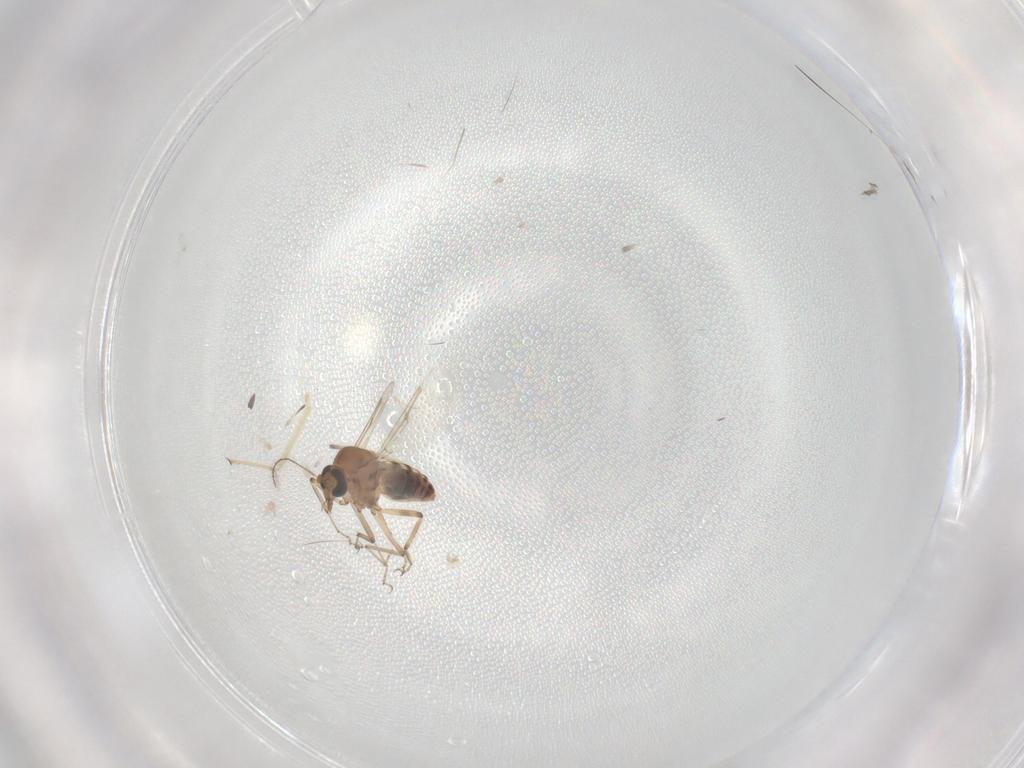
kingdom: Animalia
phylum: Arthropoda
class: Insecta
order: Diptera
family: Ceratopogonidae
